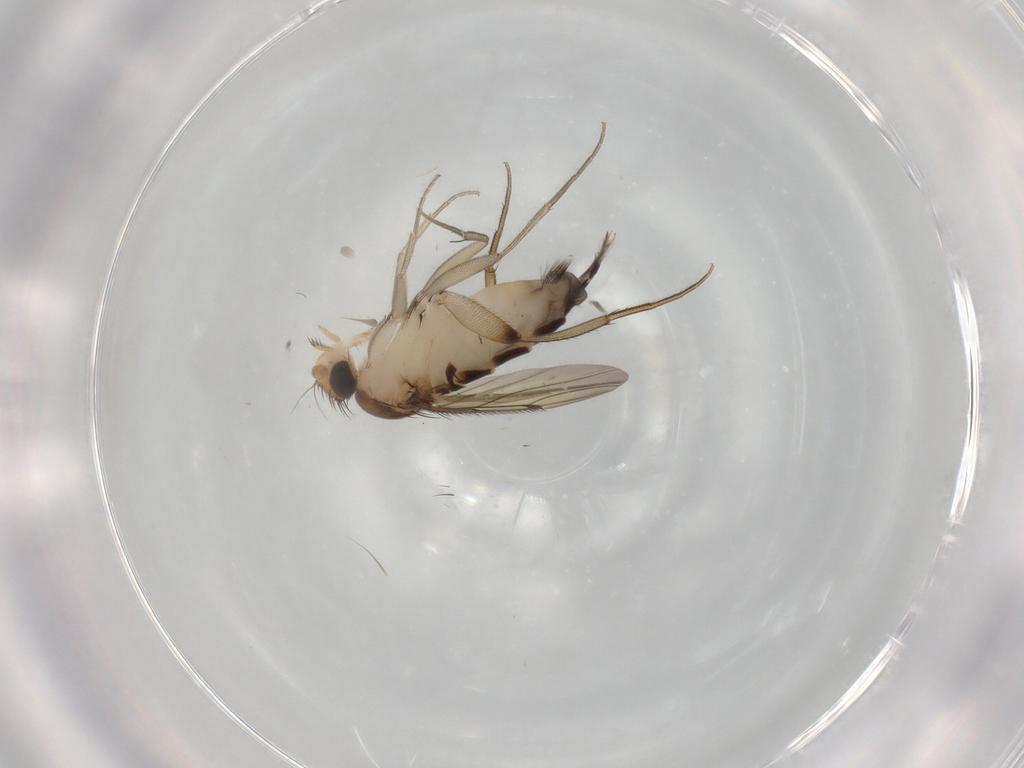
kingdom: Animalia
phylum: Arthropoda
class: Insecta
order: Diptera
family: Phoridae
